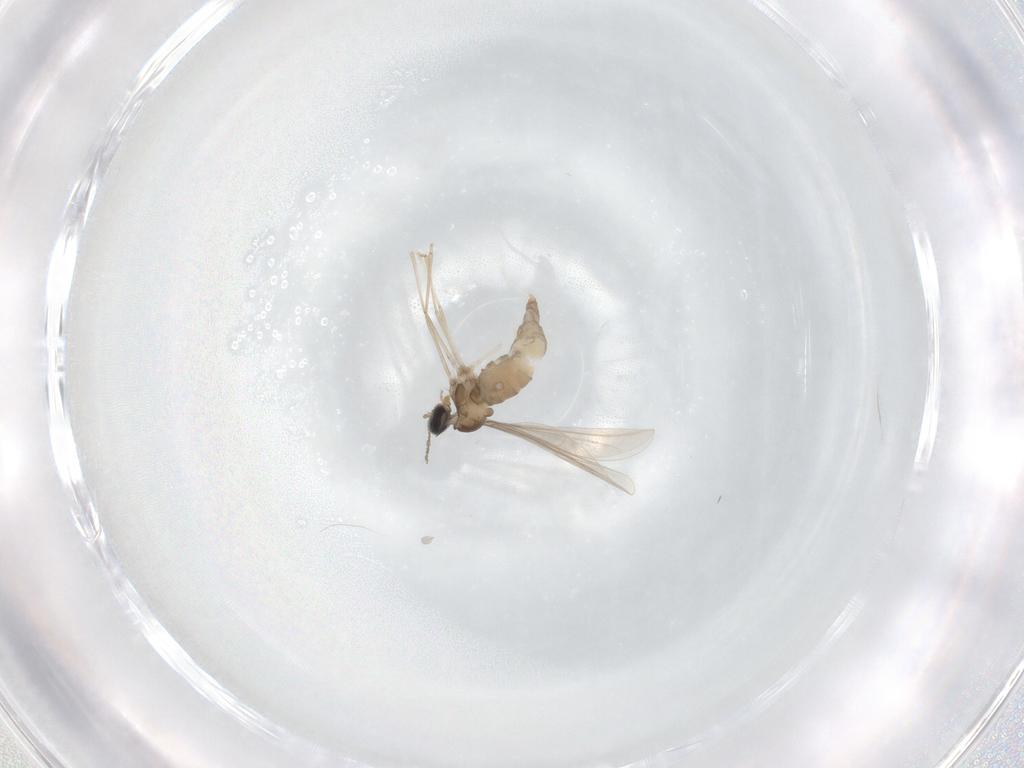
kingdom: Animalia
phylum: Arthropoda
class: Insecta
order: Diptera
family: Cecidomyiidae
